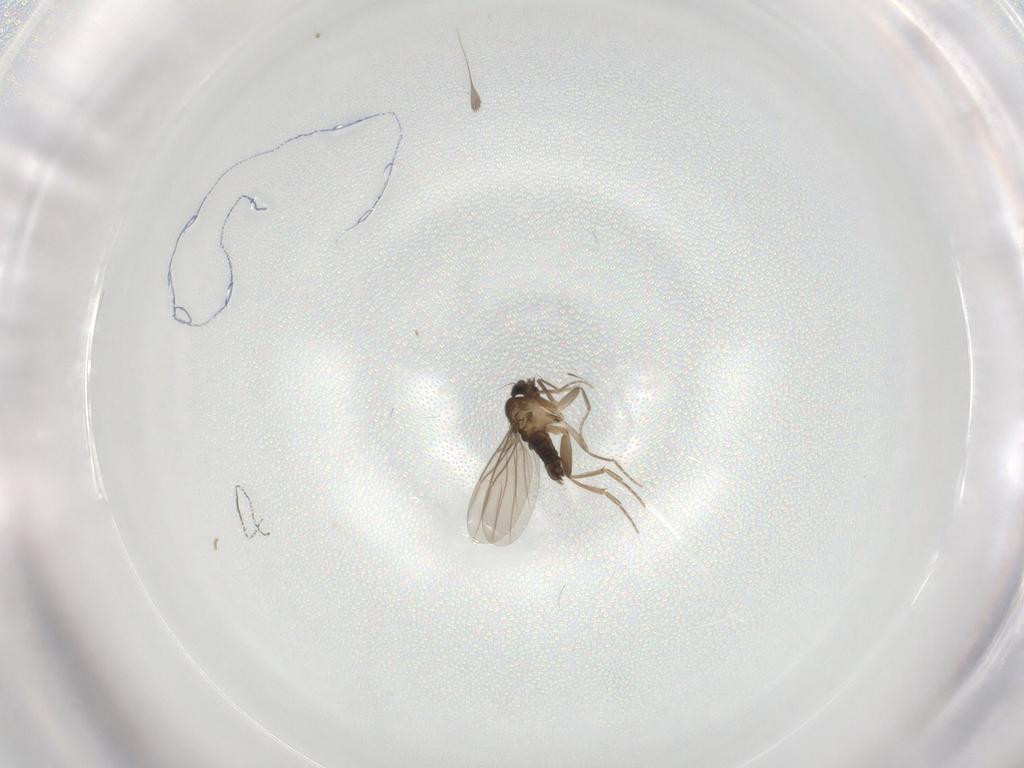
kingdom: Animalia
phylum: Arthropoda
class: Insecta
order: Diptera
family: Phoridae
